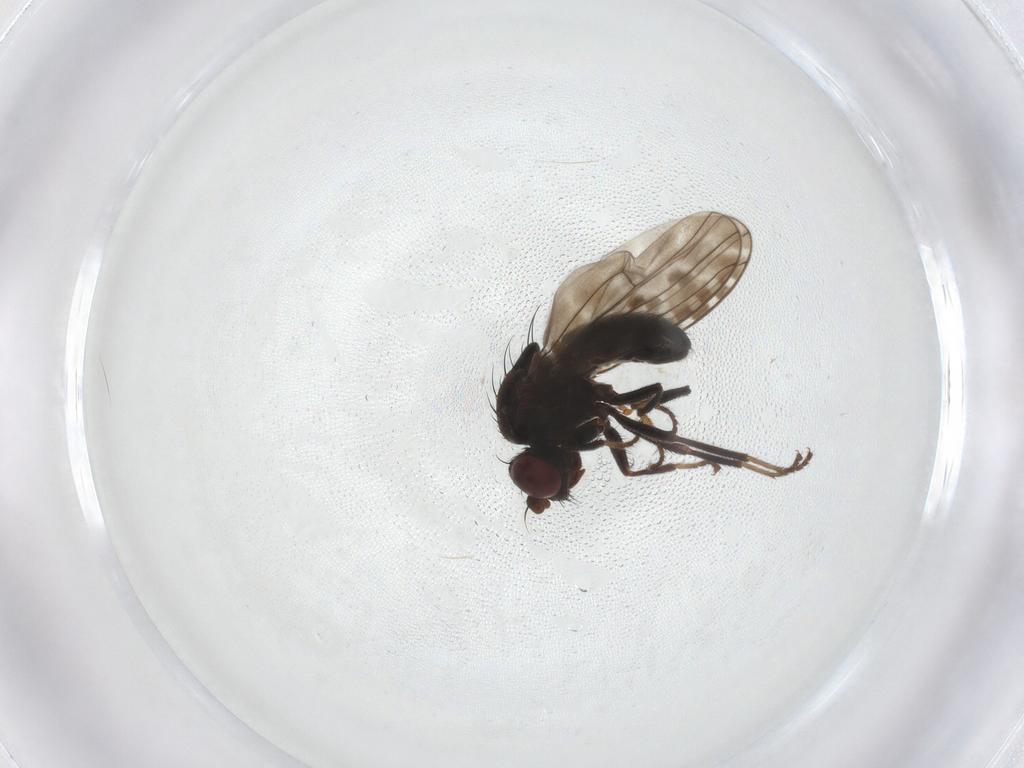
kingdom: Animalia
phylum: Arthropoda
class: Insecta
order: Diptera
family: Ephydridae
